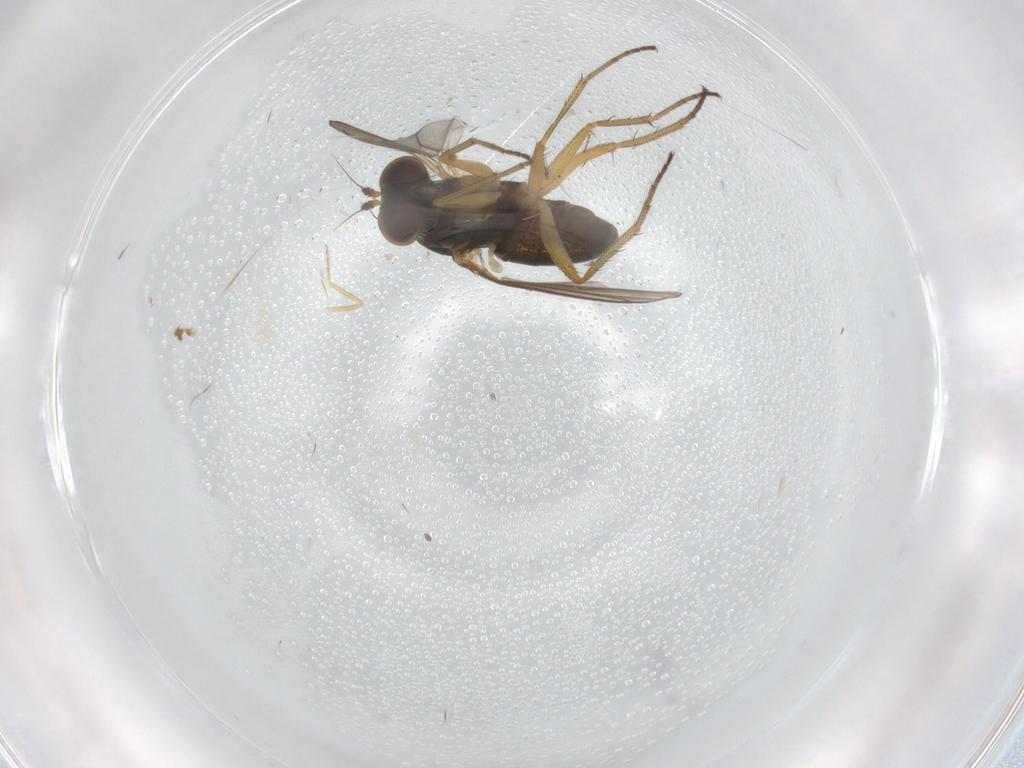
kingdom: Animalia
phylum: Arthropoda
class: Insecta
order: Diptera
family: Chironomidae
